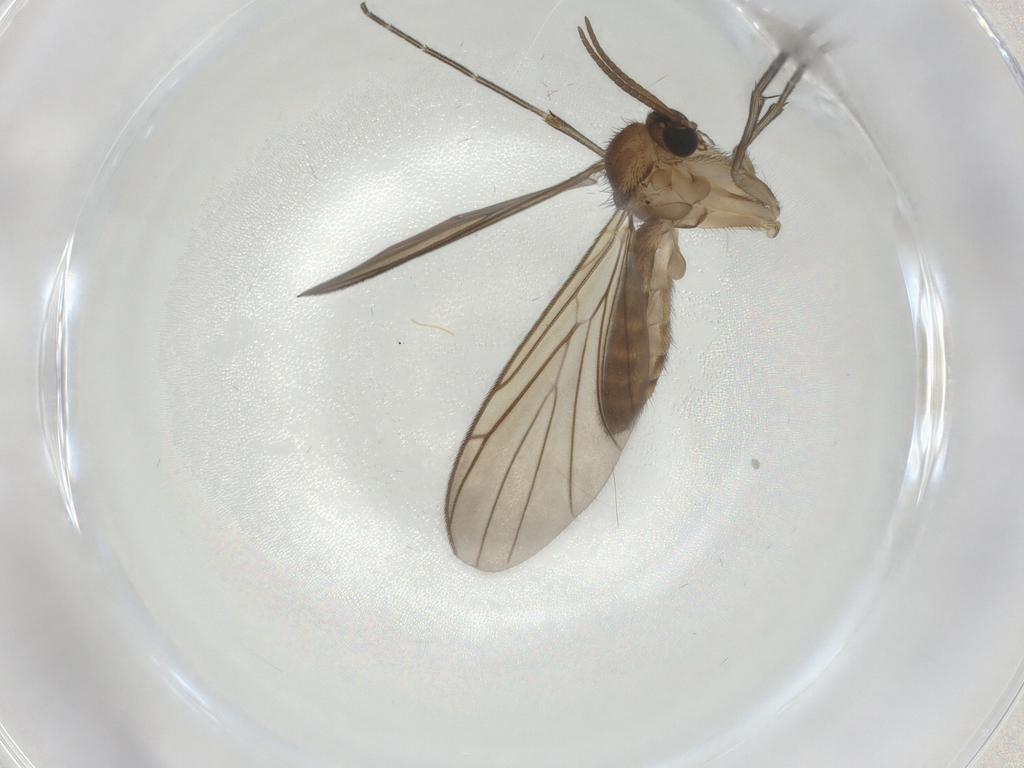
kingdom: Animalia
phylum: Arthropoda
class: Insecta
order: Diptera
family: Keroplatidae
